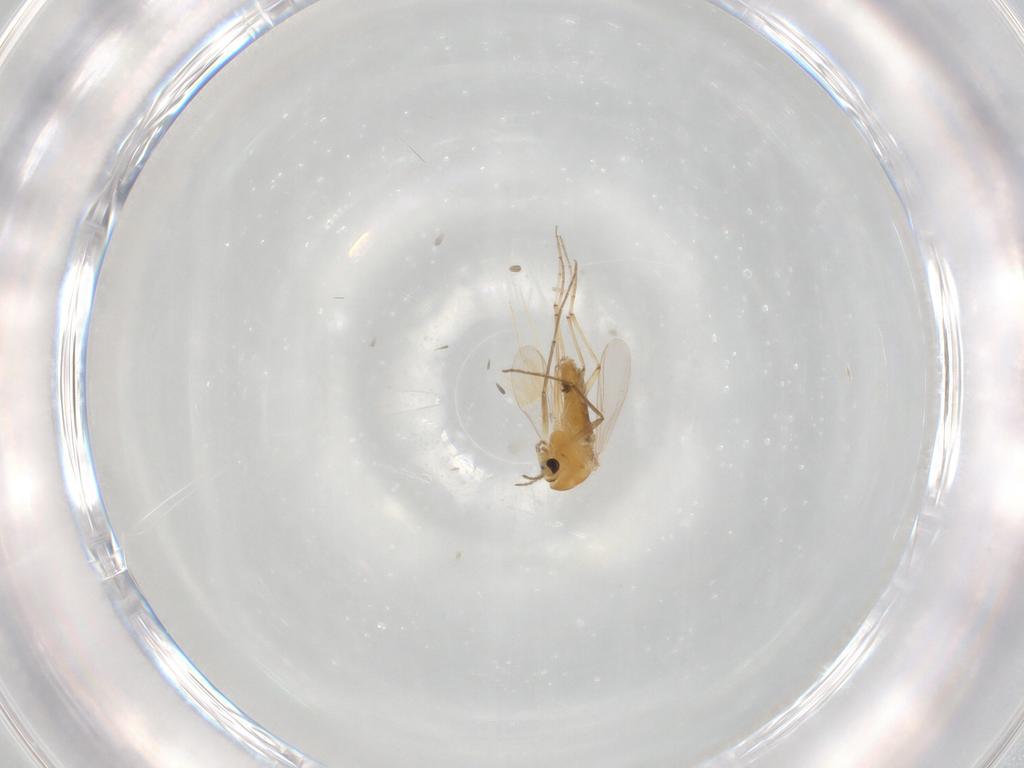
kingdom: Animalia
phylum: Arthropoda
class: Insecta
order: Diptera
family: Chironomidae
